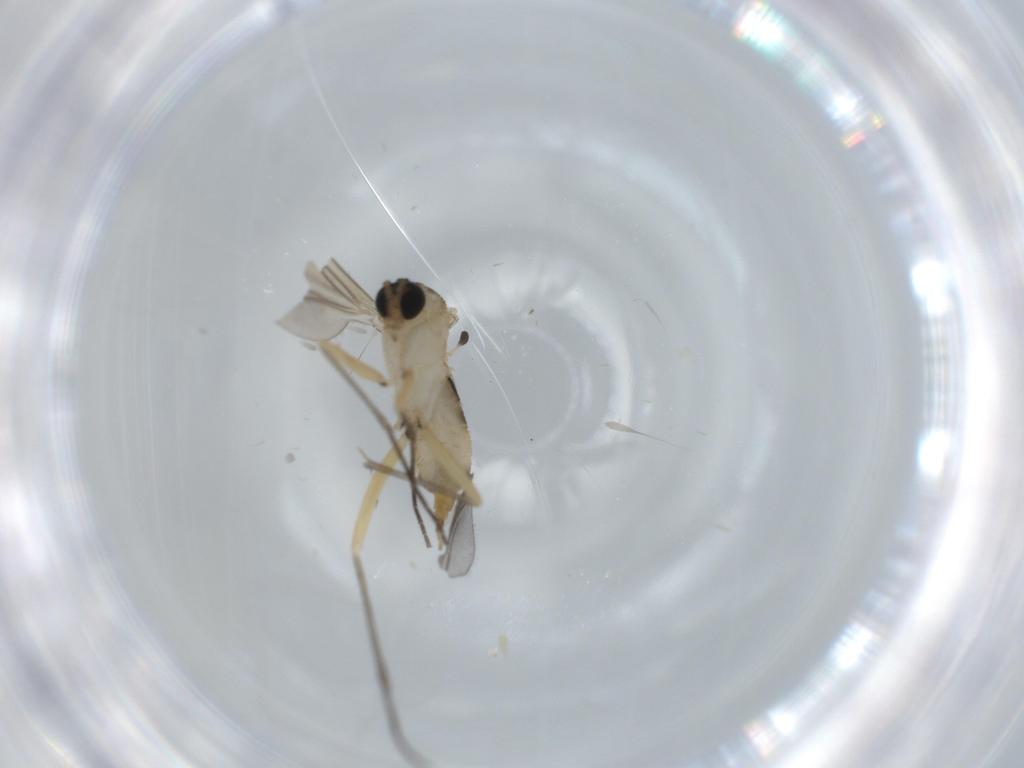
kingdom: Animalia
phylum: Arthropoda
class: Insecta
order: Diptera
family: Sciaridae
